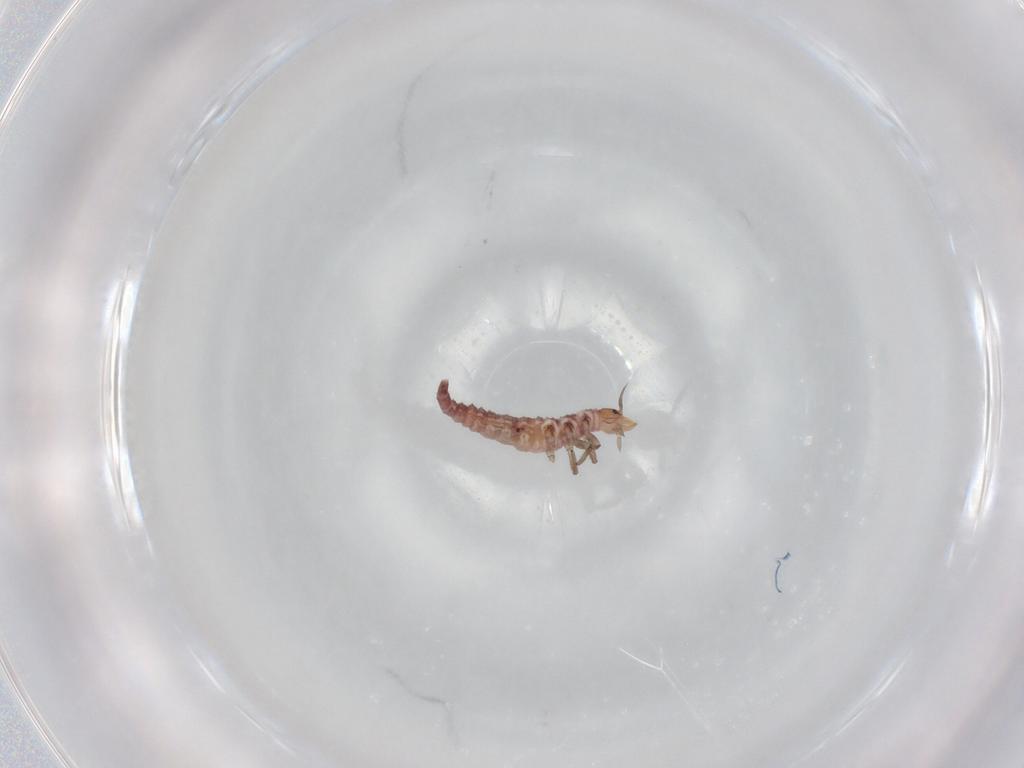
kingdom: Animalia
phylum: Arthropoda
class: Insecta
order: Neuroptera
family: Hemerobiidae
